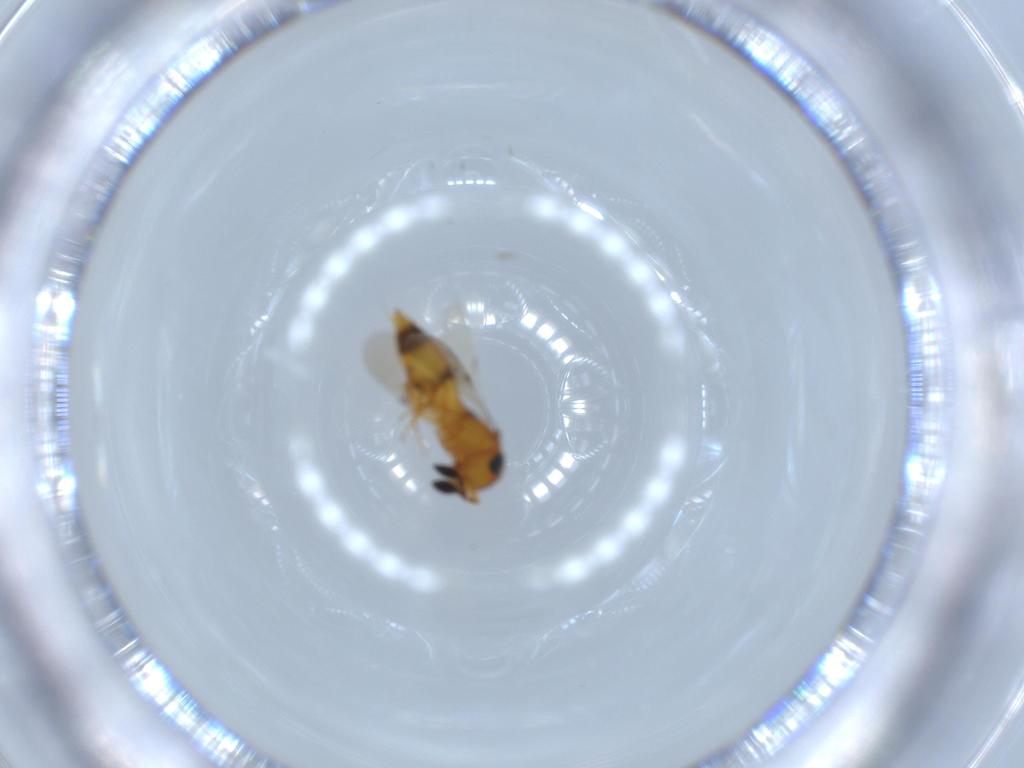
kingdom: Animalia
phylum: Arthropoda
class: Insecta
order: Hymenoptera
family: Scelionidae
